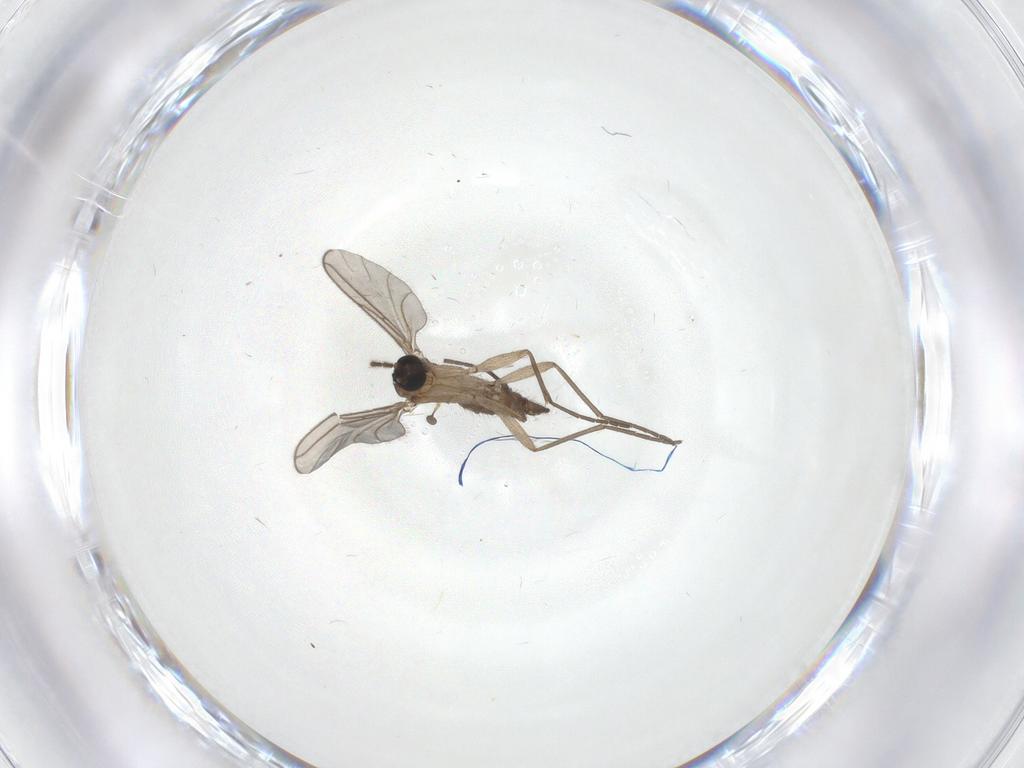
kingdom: Animalia
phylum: Arthropoda
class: Insecta
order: Diptera
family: Sciaridae
